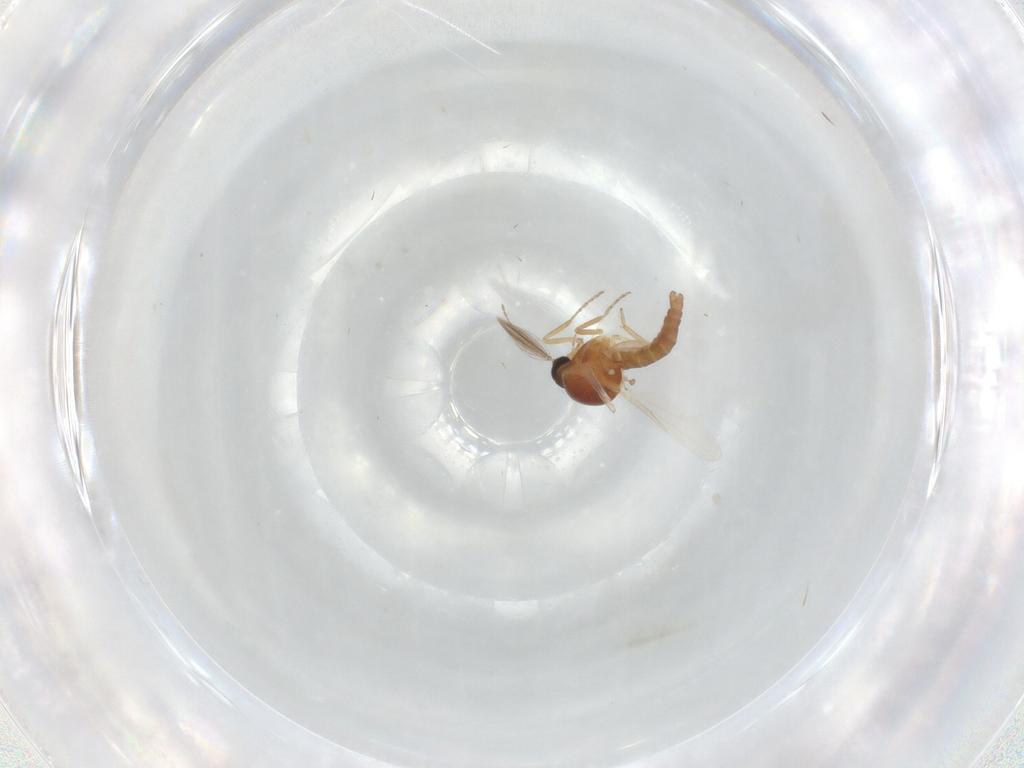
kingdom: Animalia
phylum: Arthropoda
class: Insecta
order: Diptera
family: Ceratopogonidae
